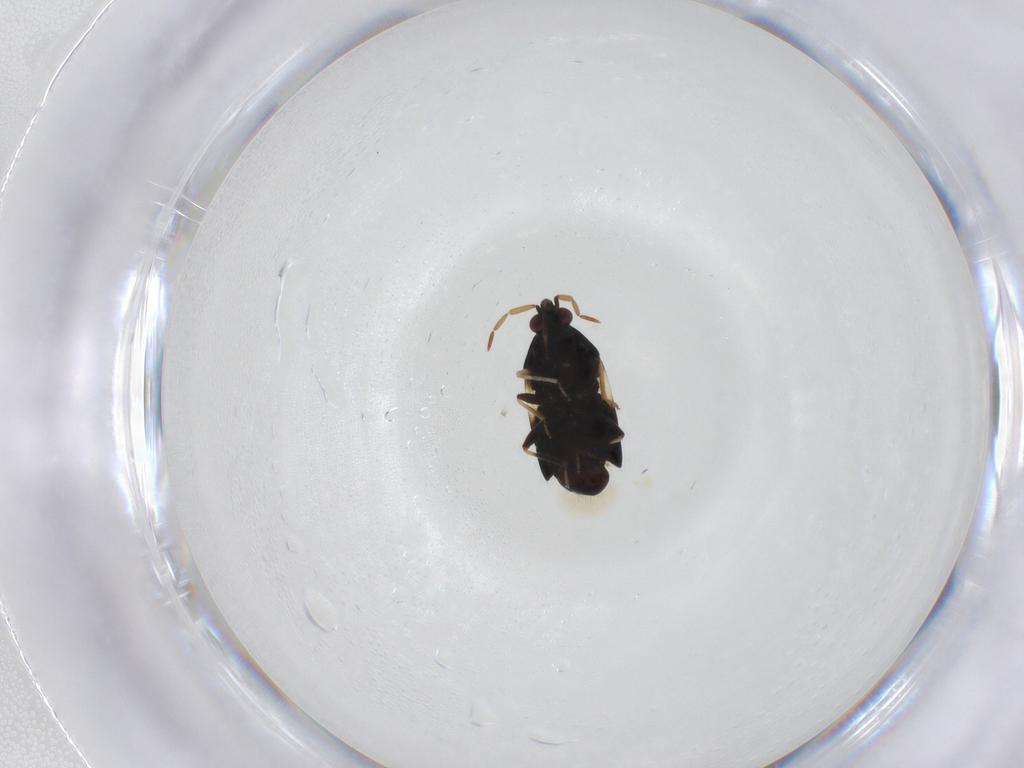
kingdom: Animalia
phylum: Arthropoda
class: Insecta
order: Hemiptera
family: Anthocoridae
